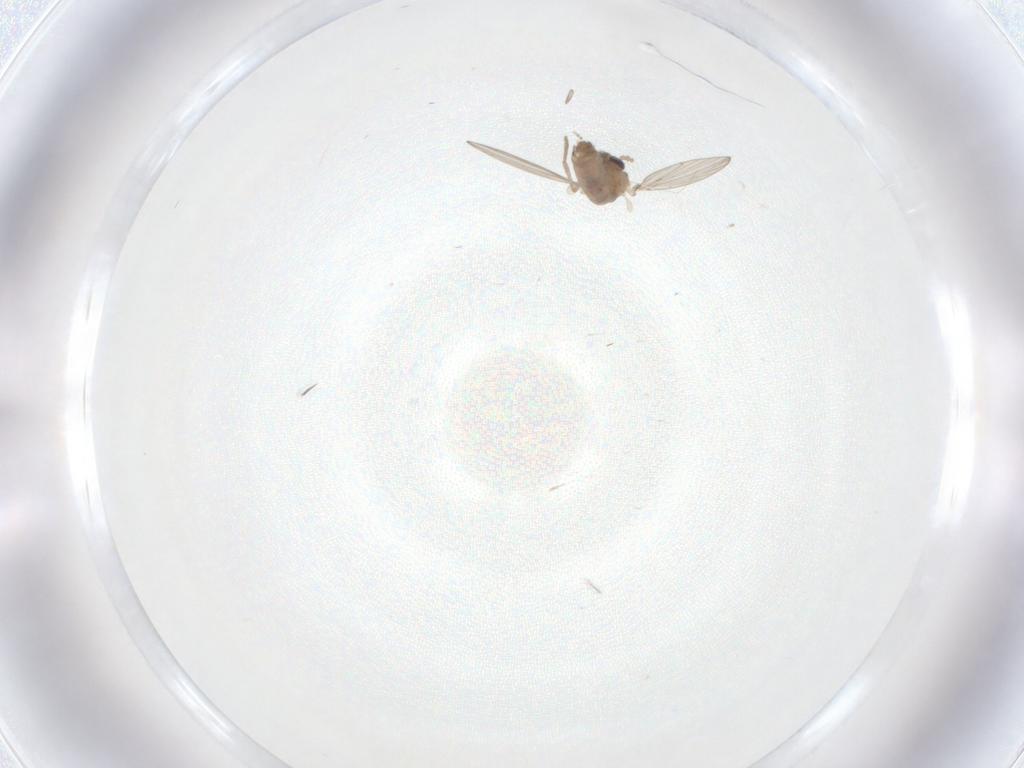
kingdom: Animalia
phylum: Arthropoda
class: Insecta
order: Diptera
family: Psychodidae
